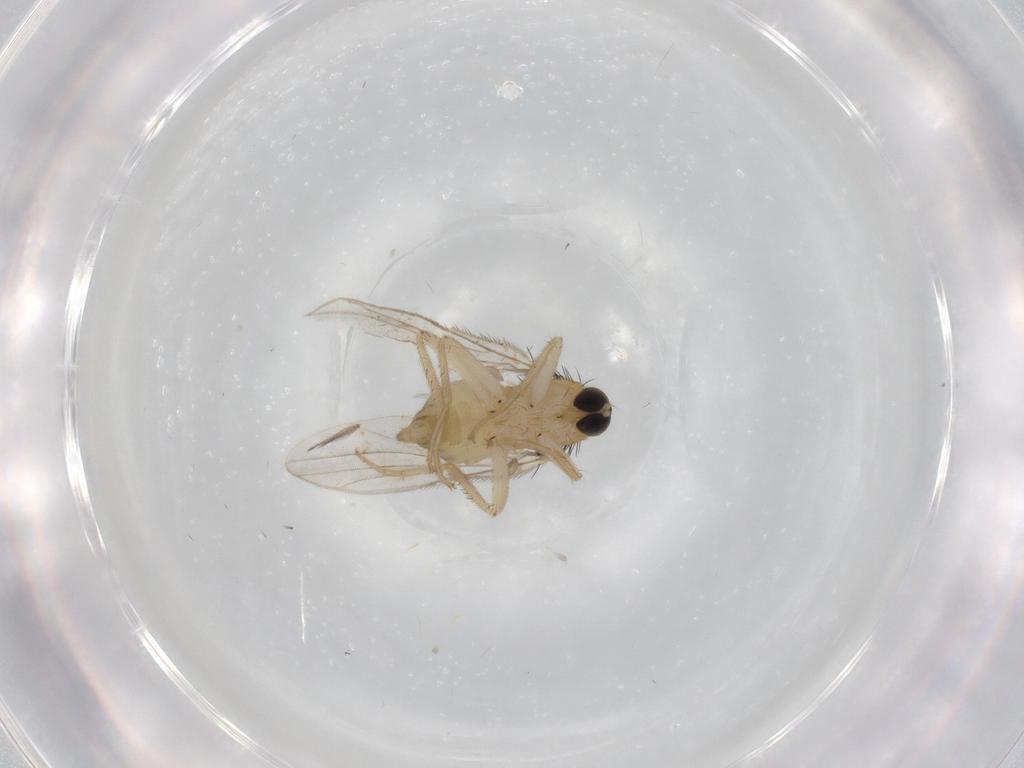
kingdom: Animalia
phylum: Arthropoda
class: Insecta
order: Diptera
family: Hybotidae
